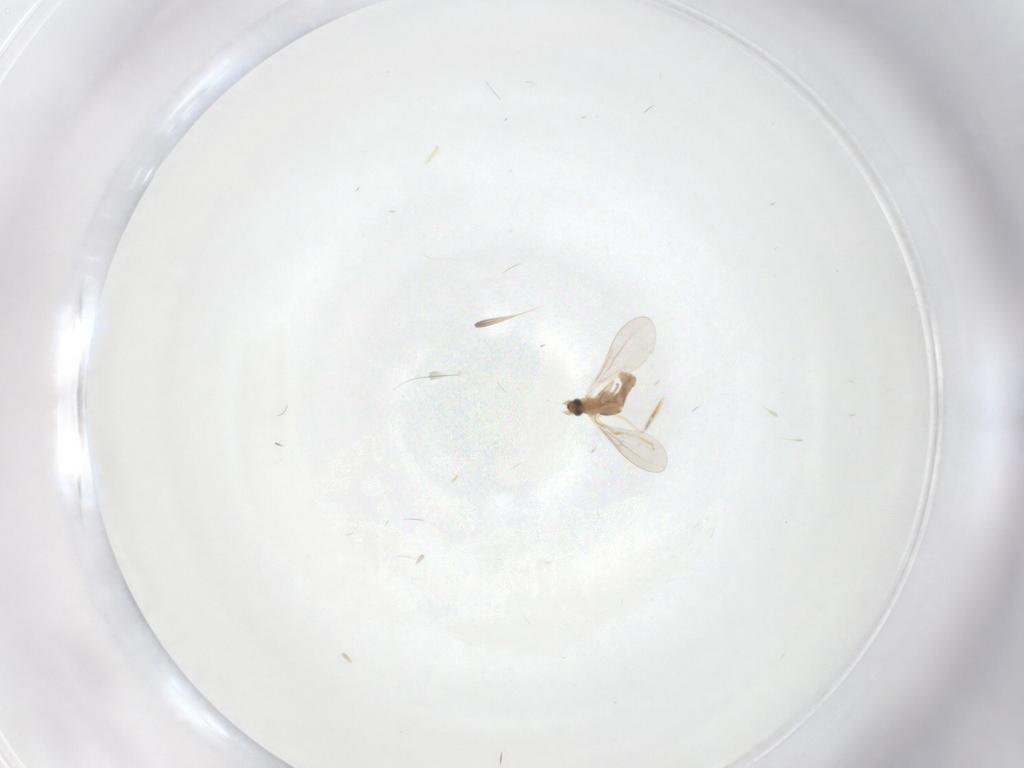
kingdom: Animalia
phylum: Arthropoda
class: Insecta
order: Diptera
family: Cecidomyiidae
